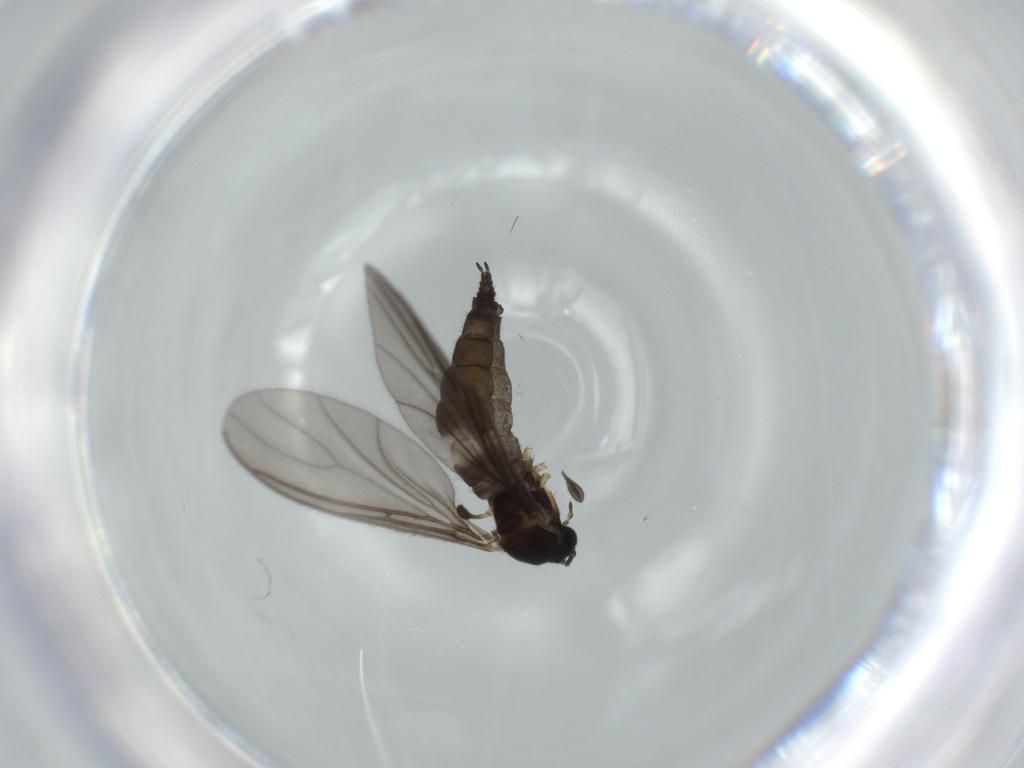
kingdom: Animalia
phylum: Arthropoda
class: Insecta
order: Diptera
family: Sciaridae
